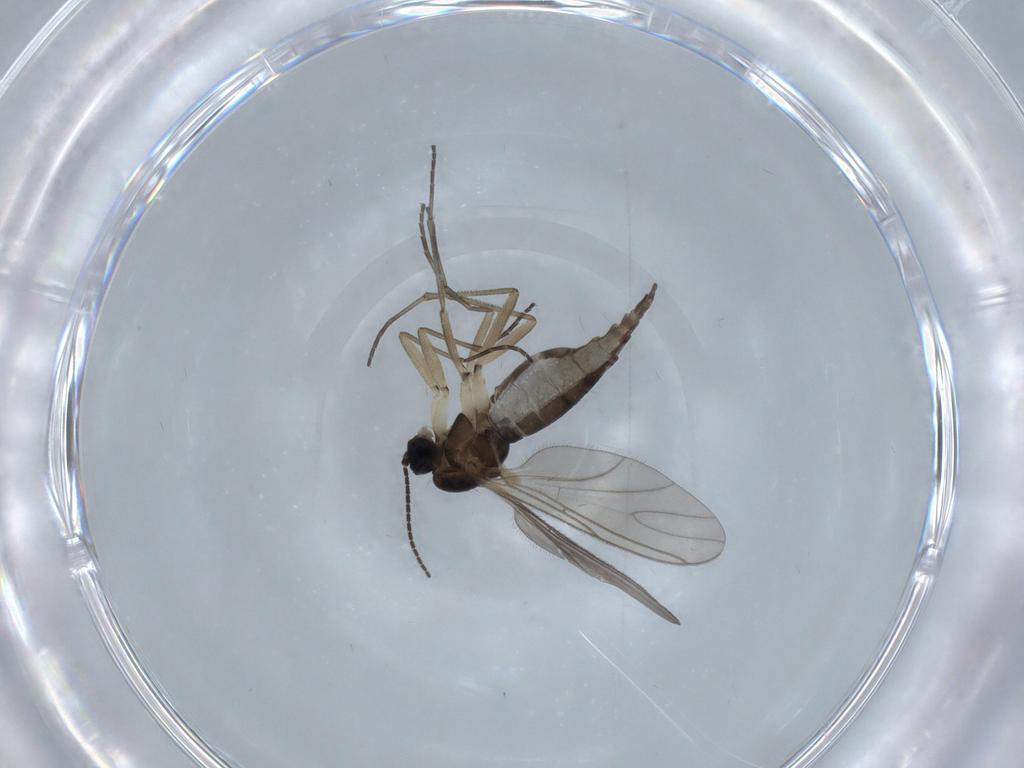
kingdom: Animalia
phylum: Arthropoda
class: Insecta
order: Diptera
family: Sciaridae
